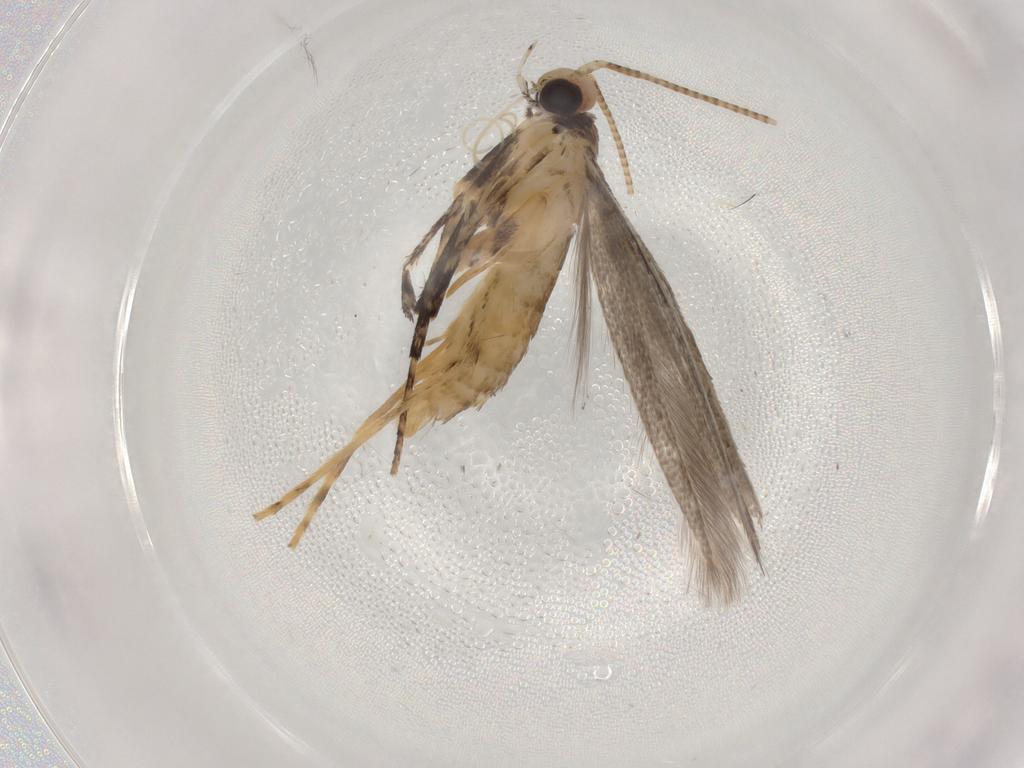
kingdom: Animalia
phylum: Arthropoda
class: Insecta
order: Lepidoptera
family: Gracillariidae
